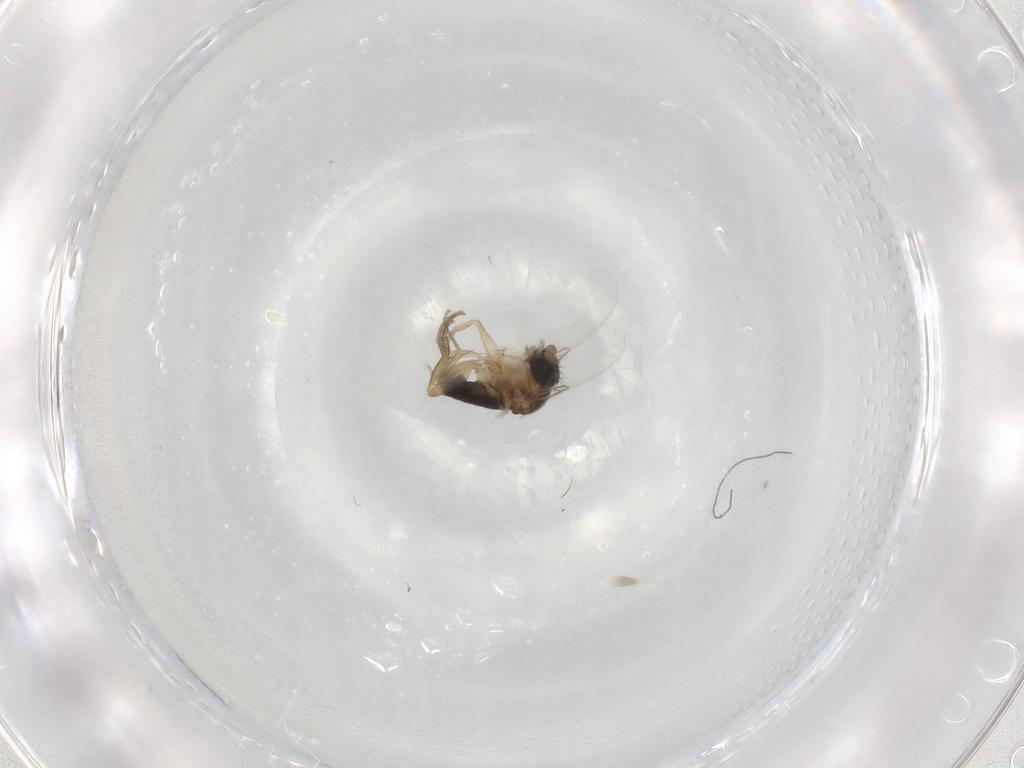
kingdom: Animalia
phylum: Arthropoda
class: Insecta
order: Diptera
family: Phoridae
